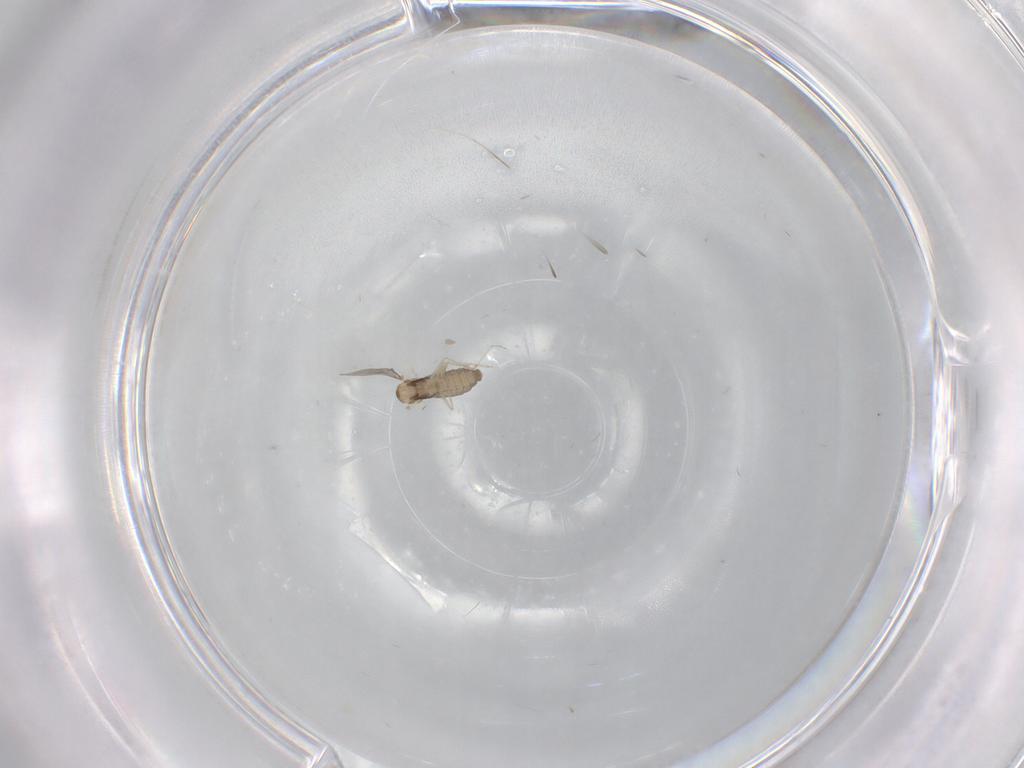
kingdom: Animalia
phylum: Arthropoda
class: Insecta
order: Diptera
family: Cecidomyiidae
